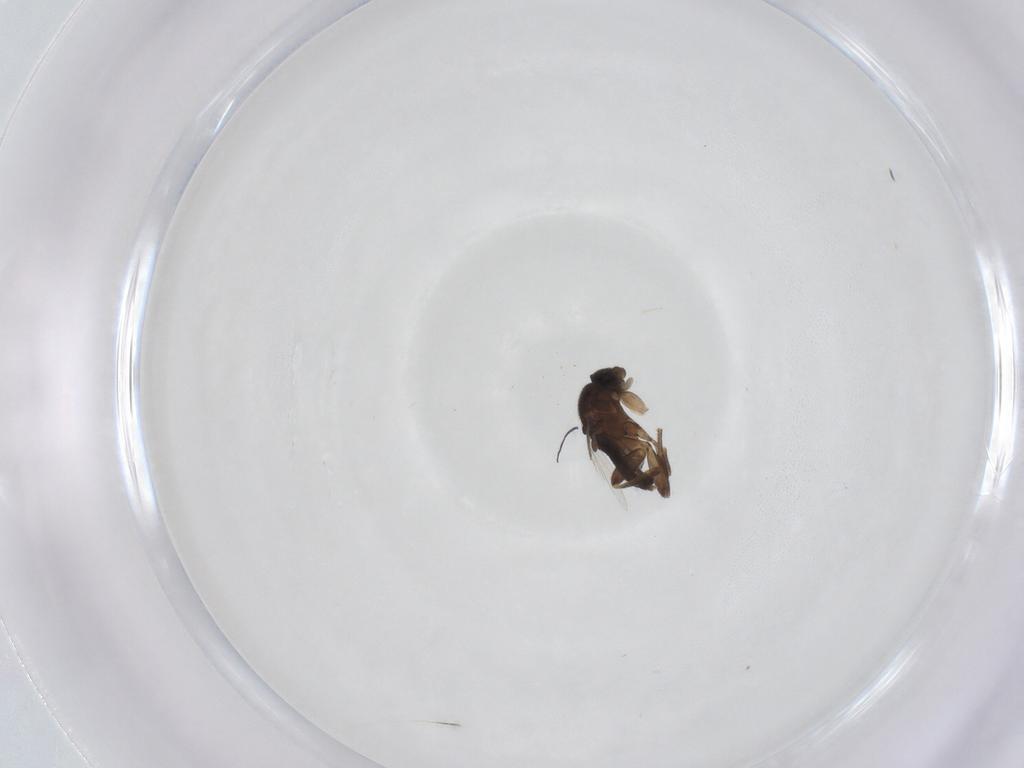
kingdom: Animalia
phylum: Arthropoda
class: Insecta
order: Diptera
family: Phoridae
